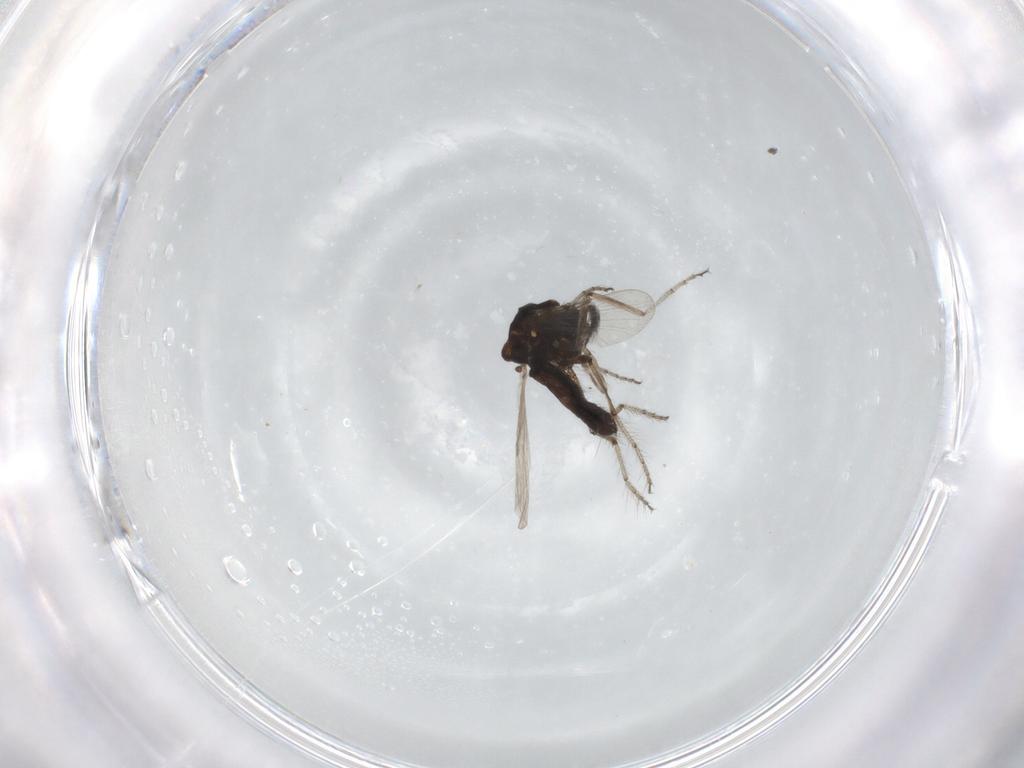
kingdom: Animalia
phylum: Arthropoda
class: Insecta
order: Diptera
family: Ceratopogonidae
